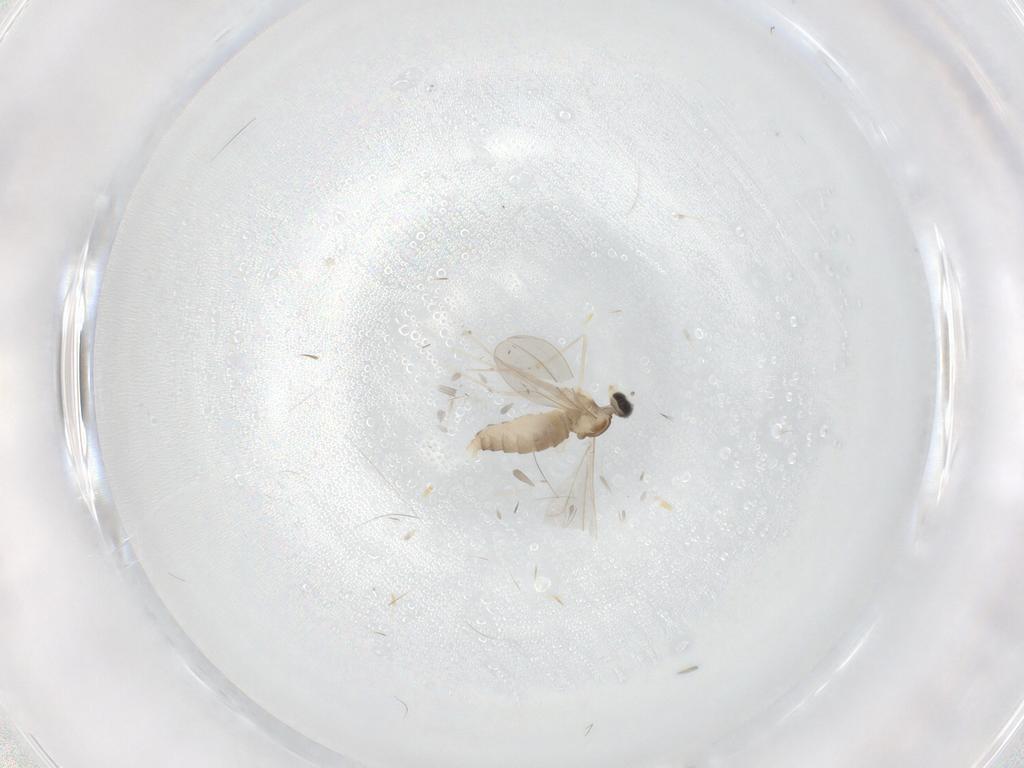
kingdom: Animalia
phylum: Arthropoda
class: Insecta
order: Diptera
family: Cecidomyiidae
